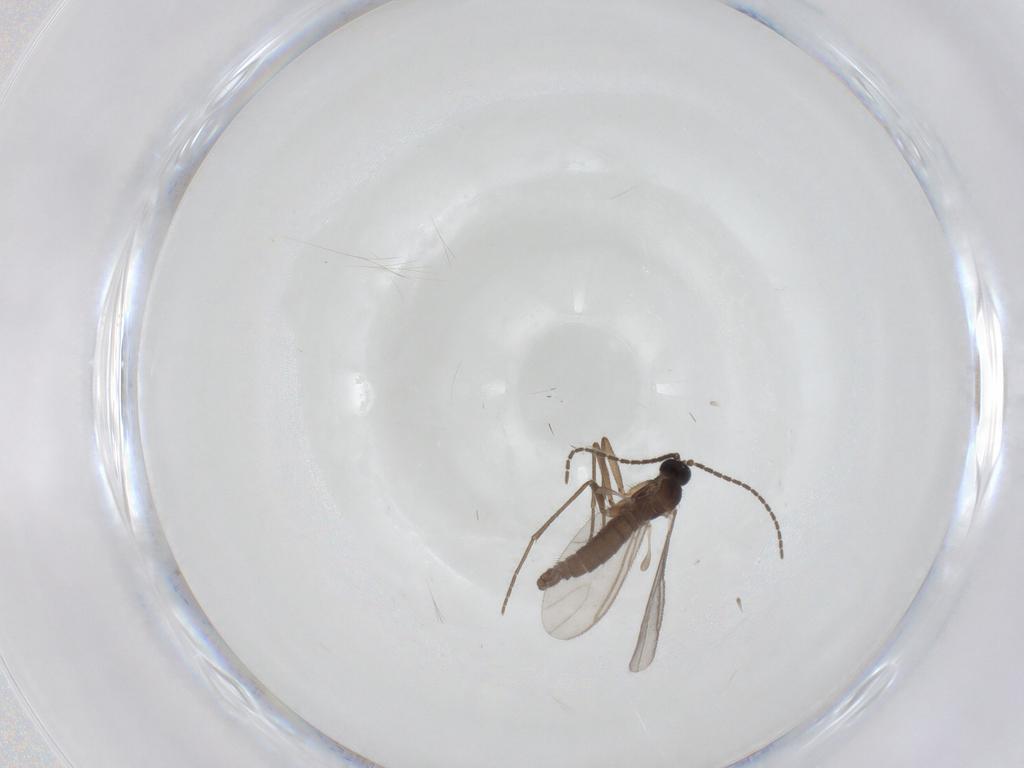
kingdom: Animalia
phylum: Arthropoda
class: Insecta
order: Diptera
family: Sciaridae
